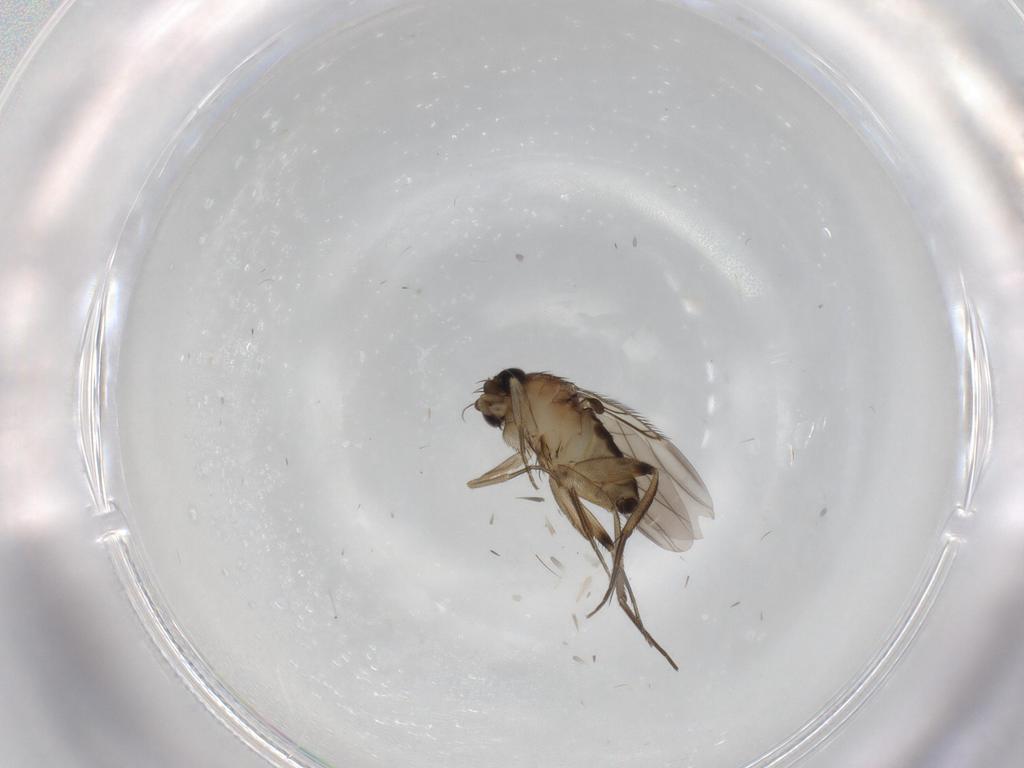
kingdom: Animalia
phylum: Arthropoda
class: Insecta
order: Diptera
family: Phoridae
